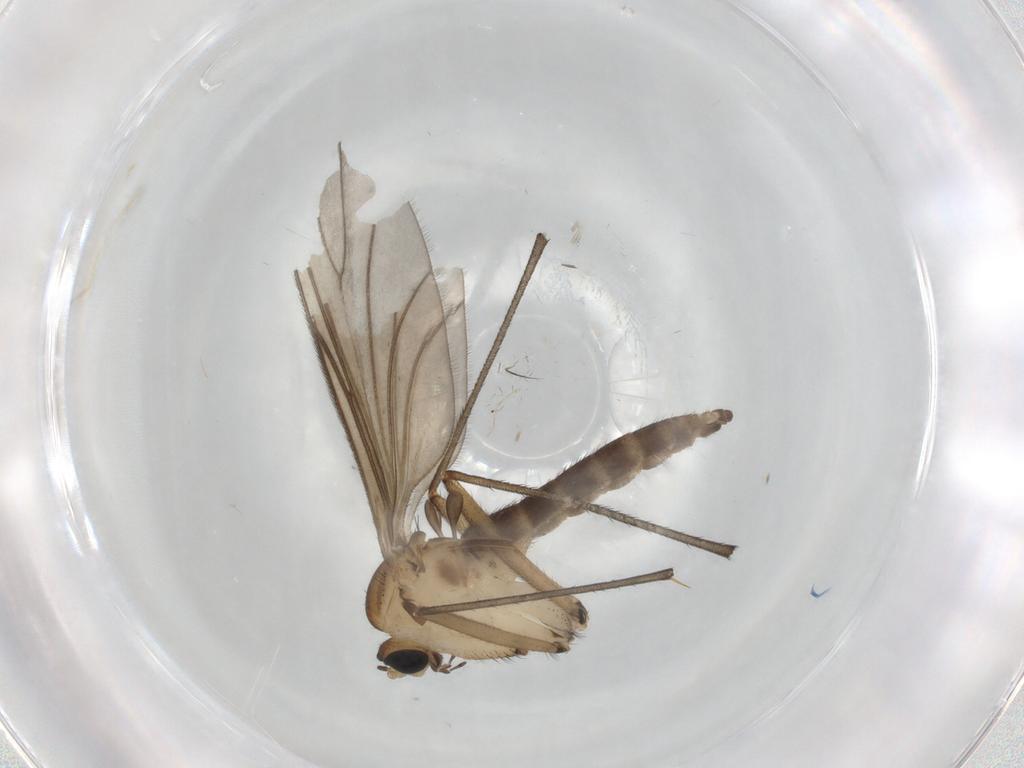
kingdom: Animalia
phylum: Arthropoda
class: Insecta
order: Diptera
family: Sciaridae
